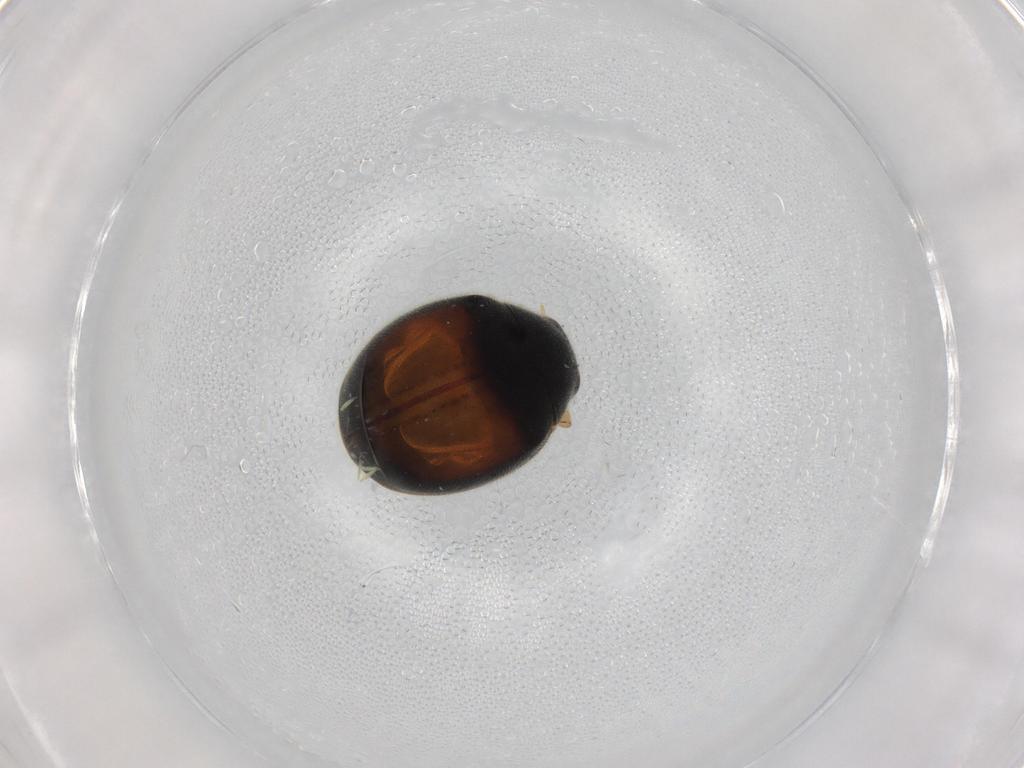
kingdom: Animalia
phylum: Arthropoda
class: Insecta
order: Coleoptera
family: Coccinellidae
